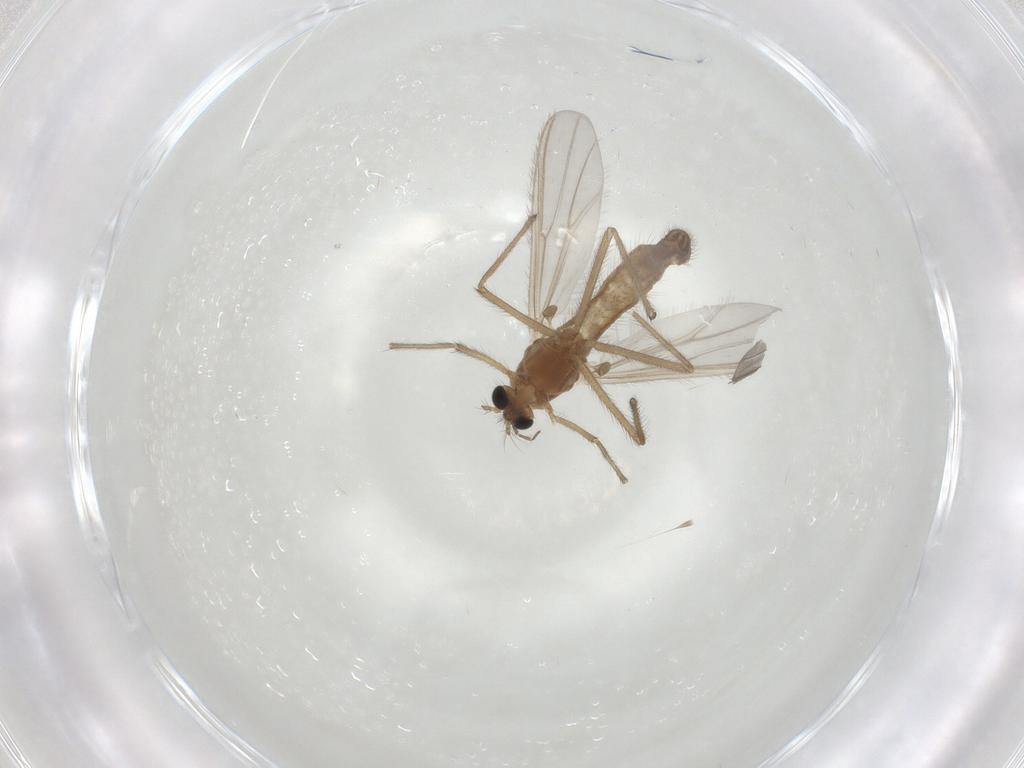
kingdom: Animalia
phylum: Arthropoda
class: Insecta
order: Diptera
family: Chironomidae
